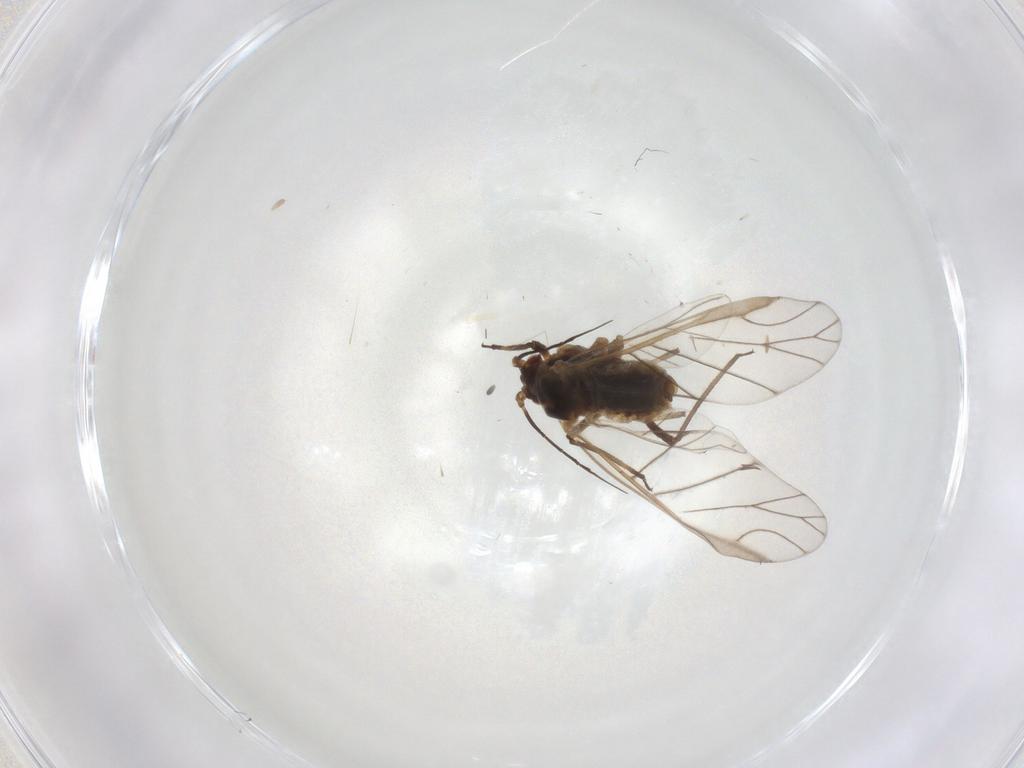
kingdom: Animalia
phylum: Arthropoda
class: Insecta
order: Hemiptera
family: Aphididae
